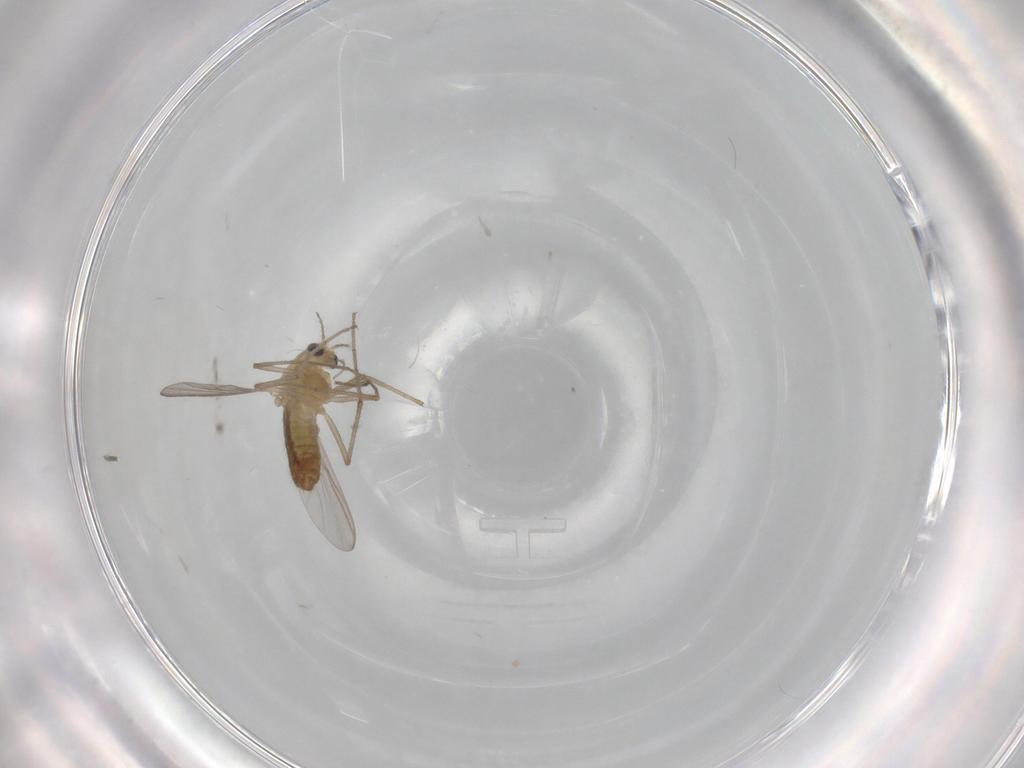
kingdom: Animalia
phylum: Arthropoda
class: Insecta
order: Diptera
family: Chironomidae
